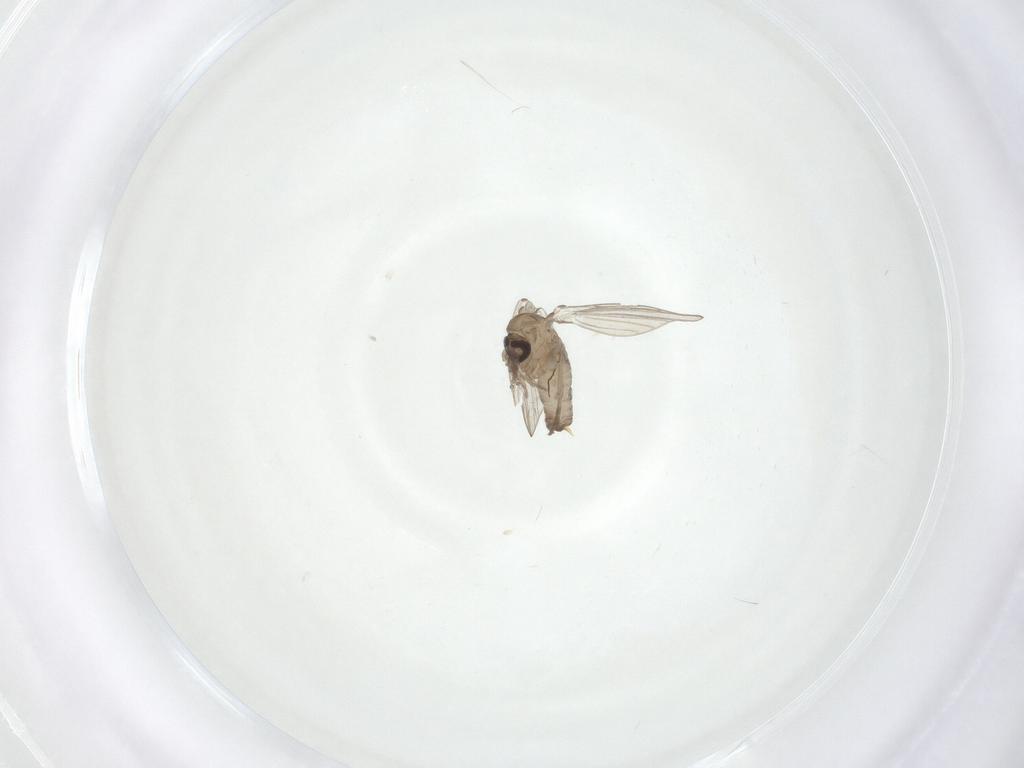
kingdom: Animalia
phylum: Arthropoda
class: Insecta
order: Diptera
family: Psychodidae
